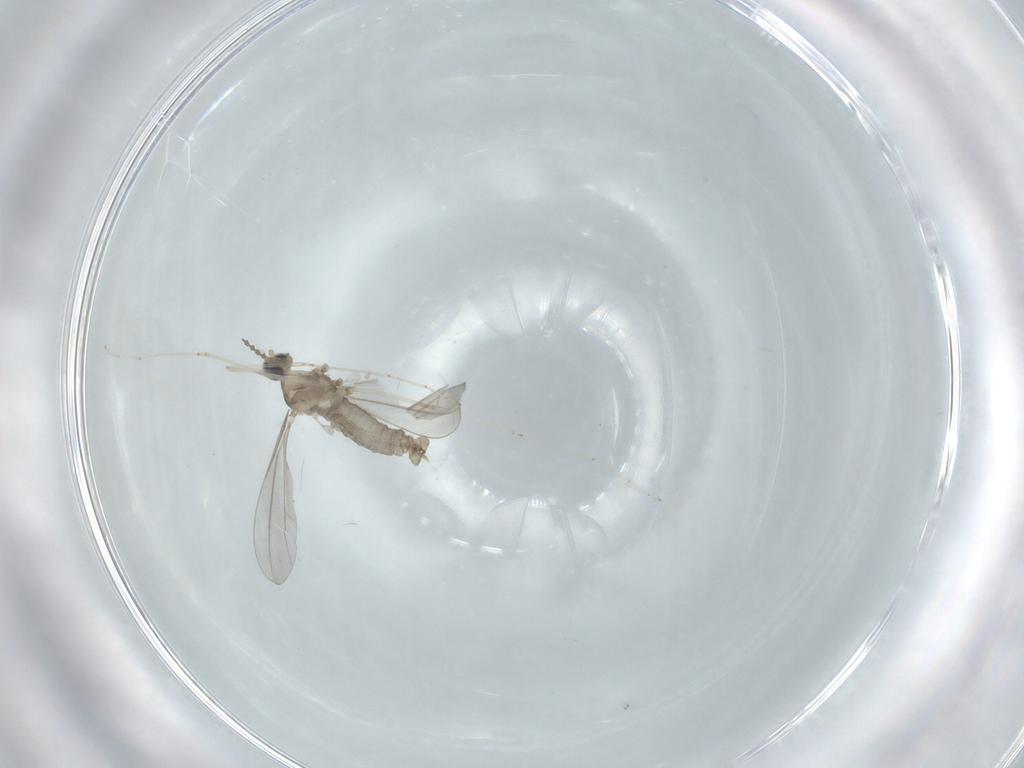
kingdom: Animalia
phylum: Arthropoda
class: Insecta
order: Diptera
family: Cecidomyiidae
